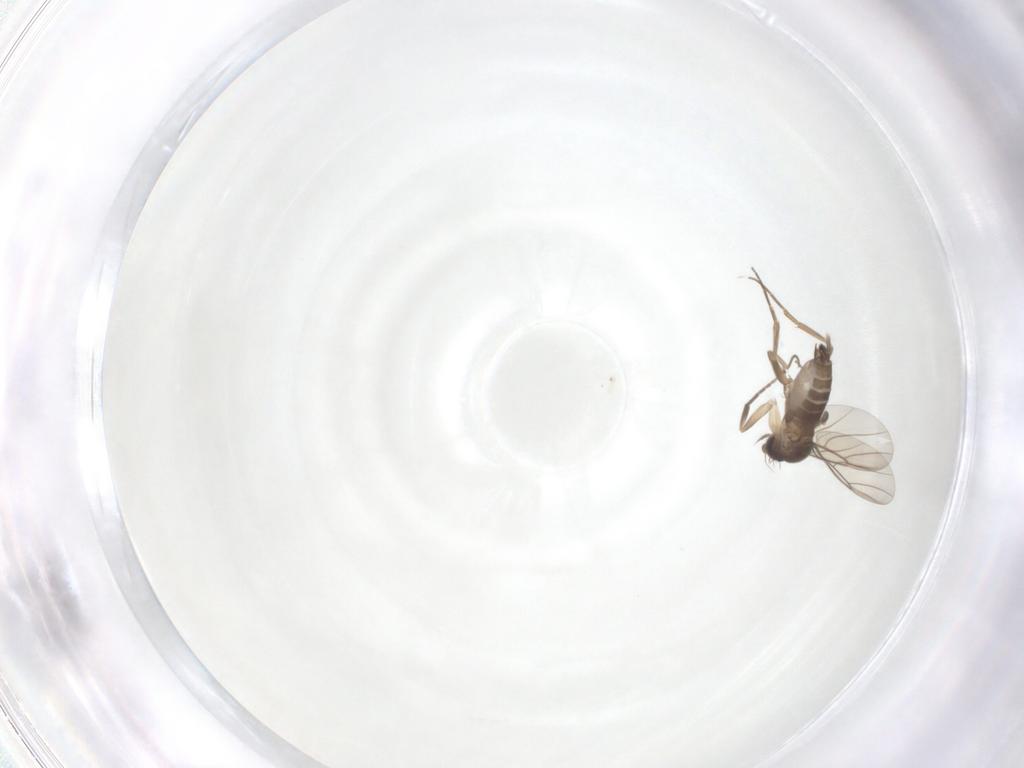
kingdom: Animalia
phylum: Arthropoda
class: Insecta
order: Diptera
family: Phoridae
